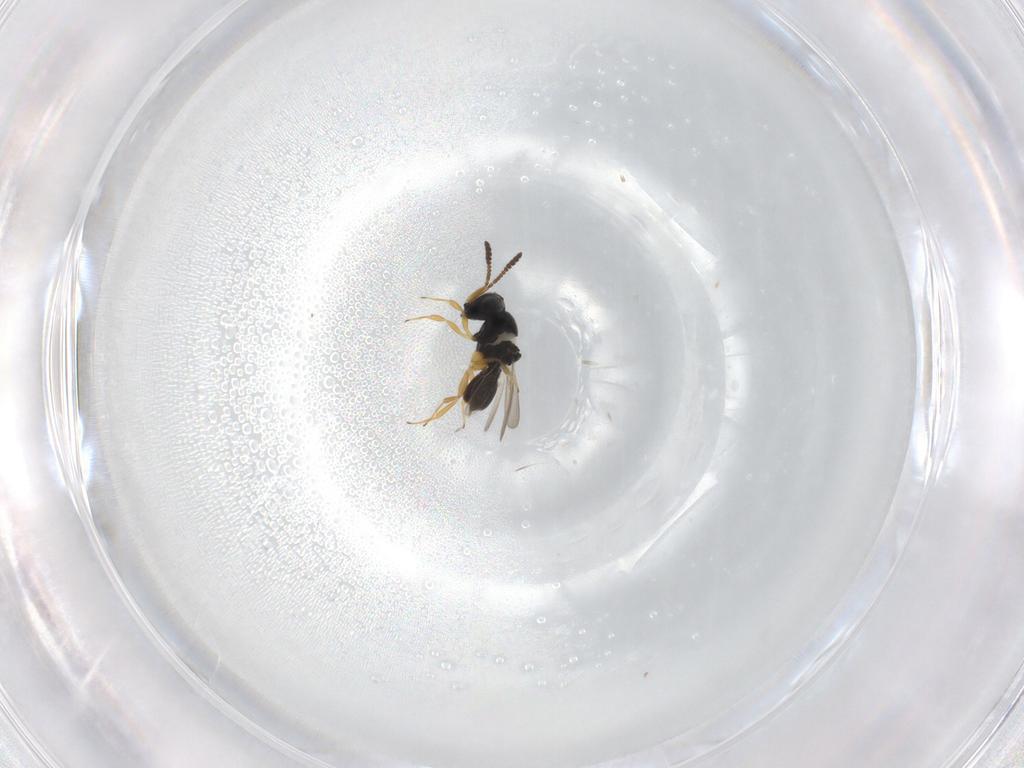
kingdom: Animalia
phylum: Arthropoda
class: Insecta
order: Hymenoptera
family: Scelionidae
